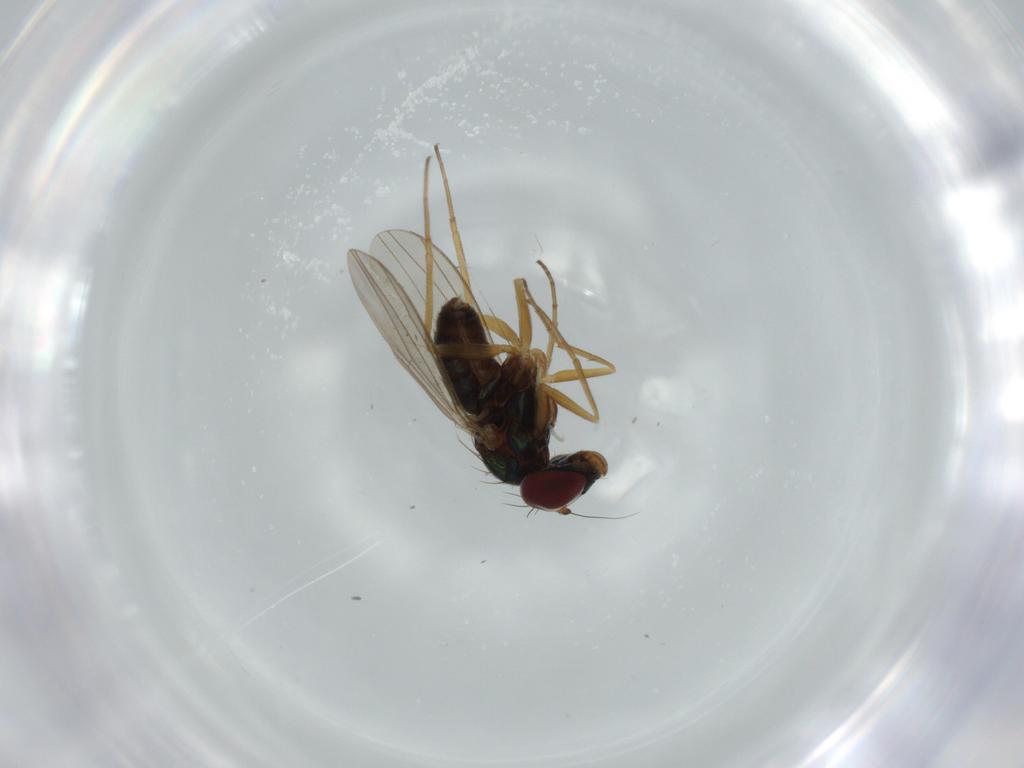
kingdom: Animalia
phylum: Arthropoda
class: Insecta
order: Diptera
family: Dolichopodidae
